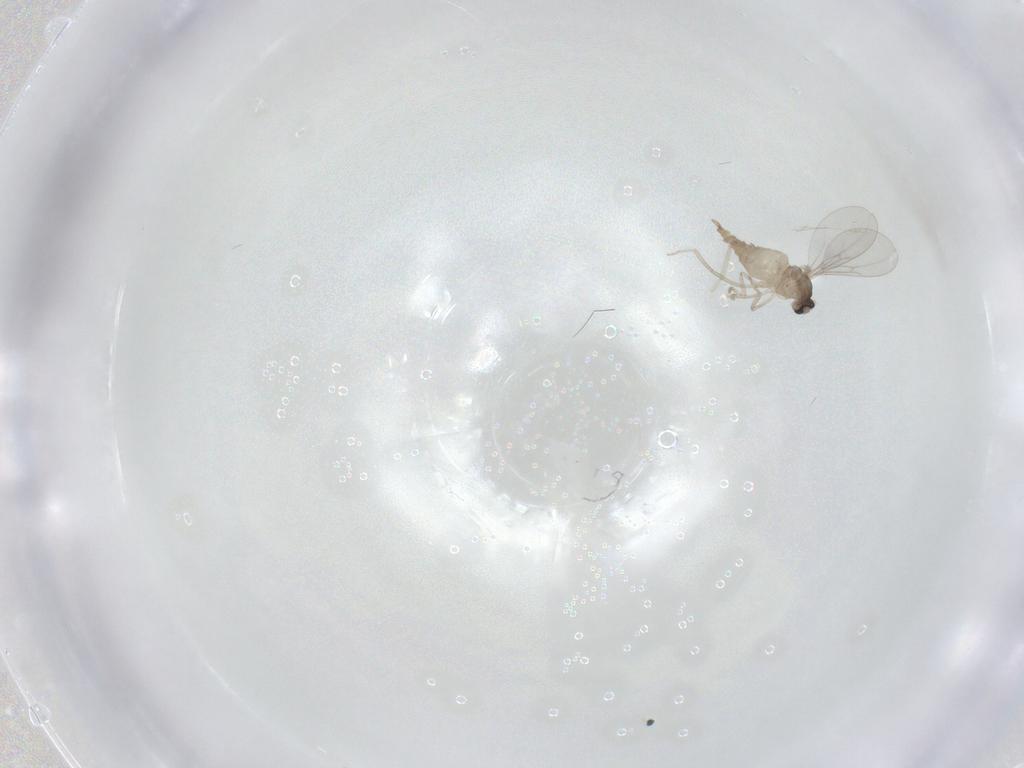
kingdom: Animalia
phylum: Arthropoda
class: Insecta
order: Diptera
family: Cecidomyiidae
